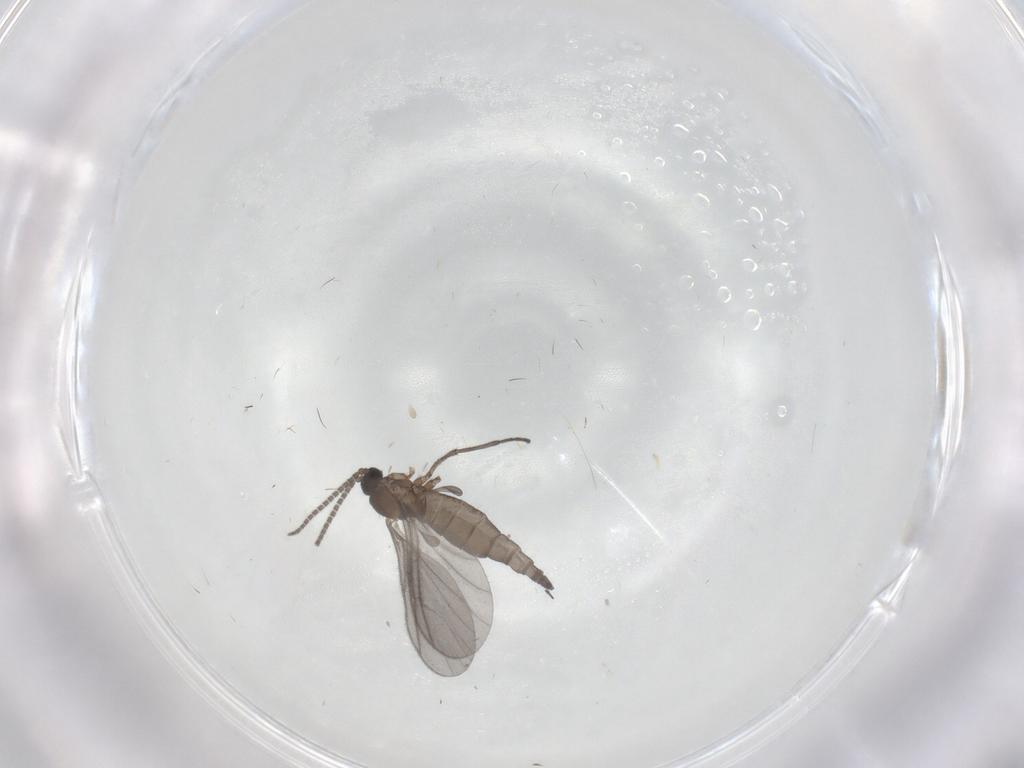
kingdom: Animalia
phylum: Arthropoda
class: Insecta
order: Diptera
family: Sciaridae
